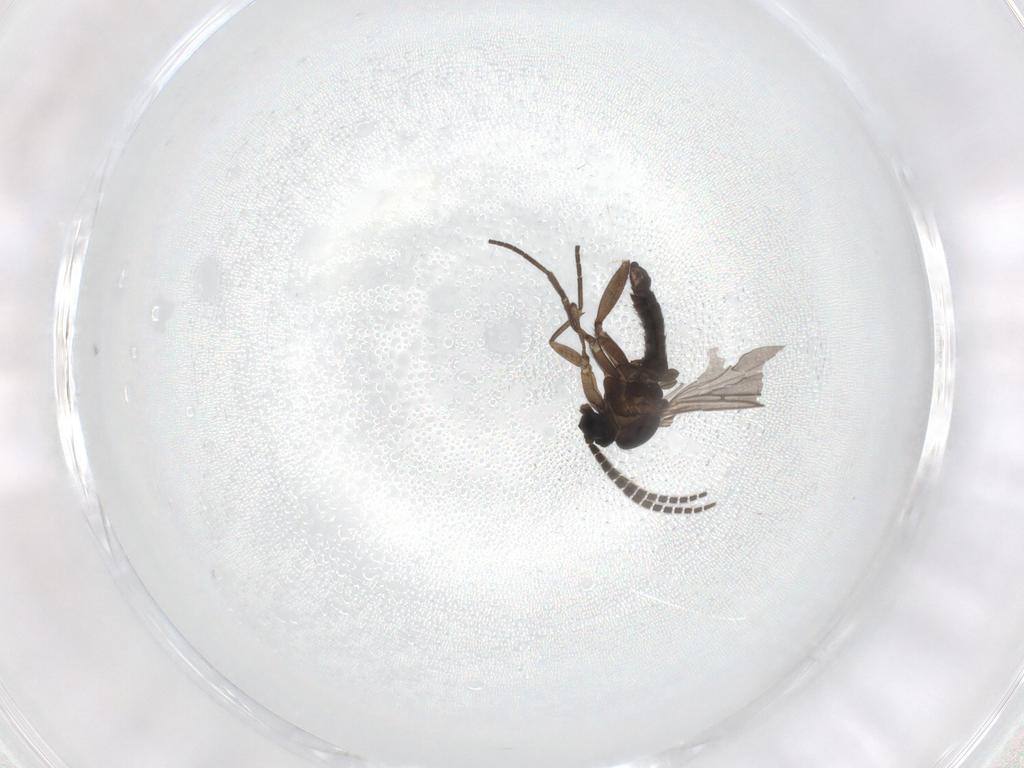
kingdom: Animalia
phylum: Arthropoda
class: Insecta
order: Diptera
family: Sciaridae
